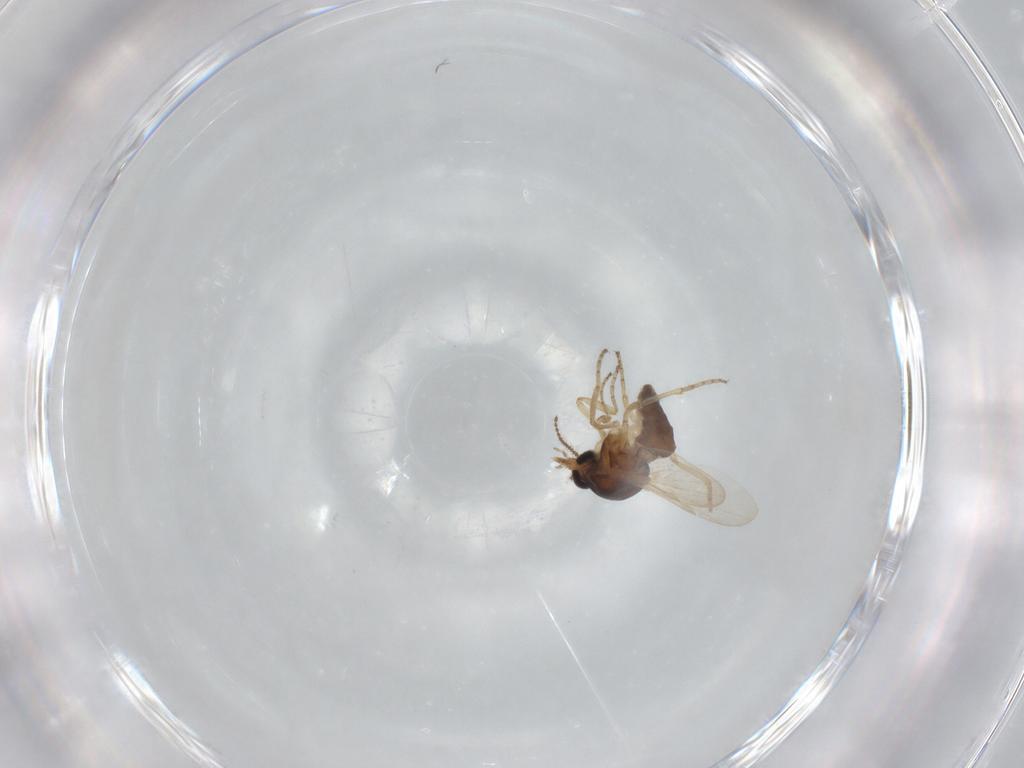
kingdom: Animalia
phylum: Arthropoda
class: Insecta
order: Diptera
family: Ceratopogonidae
